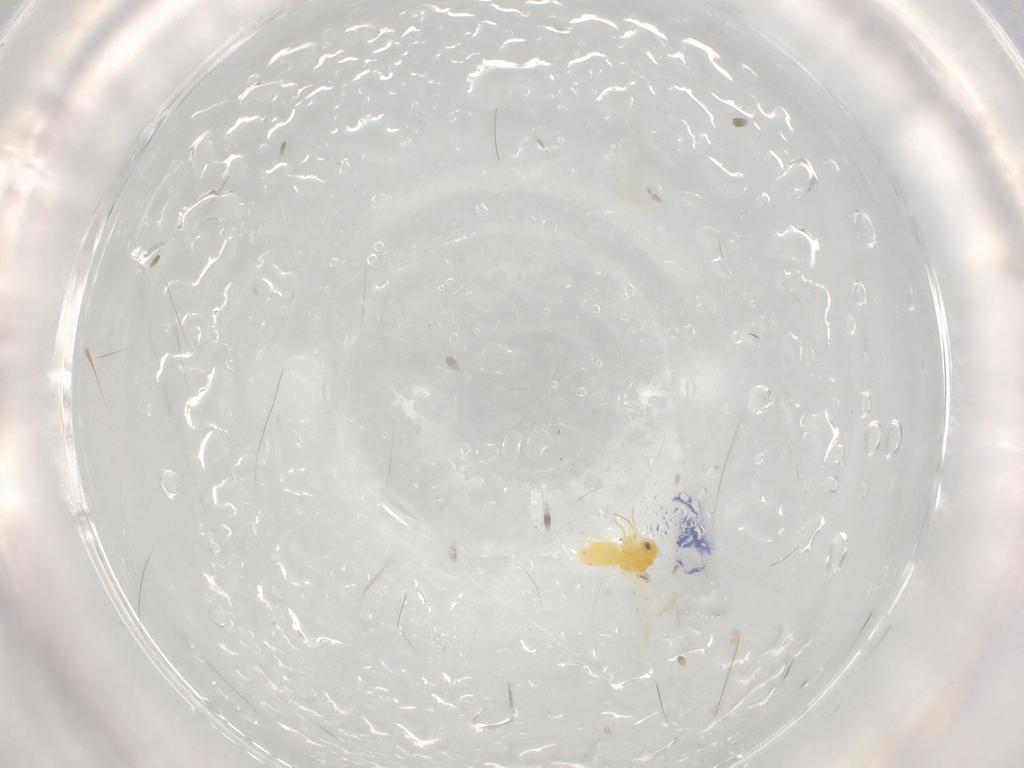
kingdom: Animalia
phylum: Arthropoda
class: Insecta
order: Hemiptera
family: Aleyrodidae
